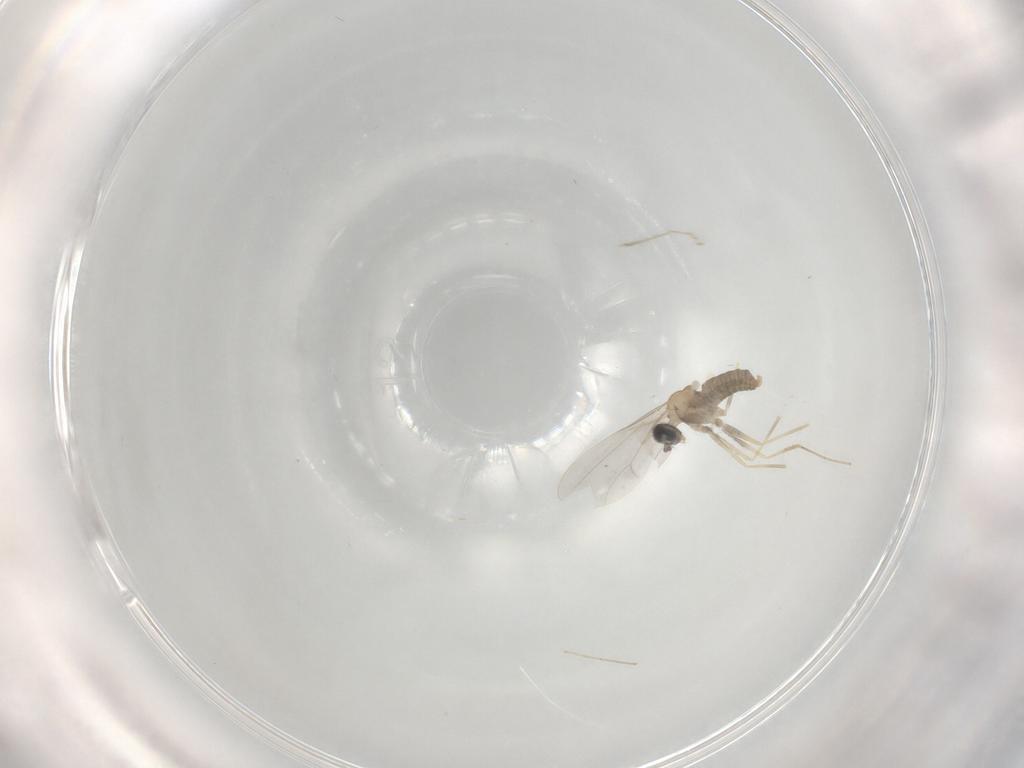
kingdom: Animalia
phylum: Arthropoda
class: Insecta
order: Diptera
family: Cecidomyiidae
